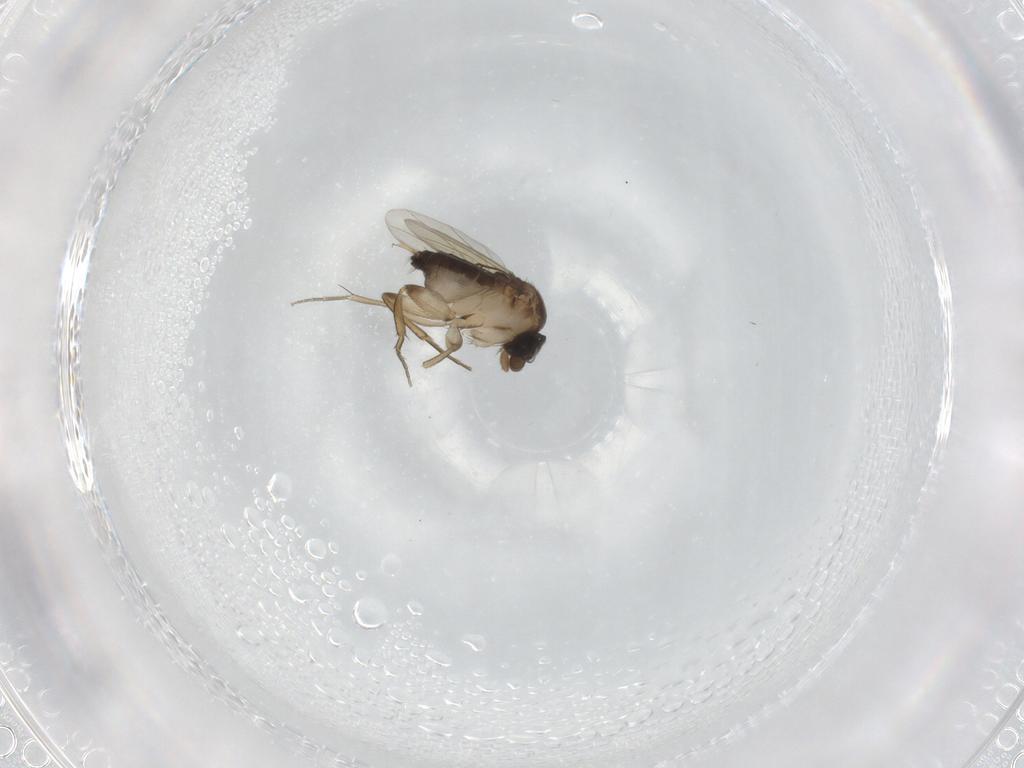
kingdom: Animalia
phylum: Arthropoda
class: Insecta
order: Diptera
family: Phoridae
